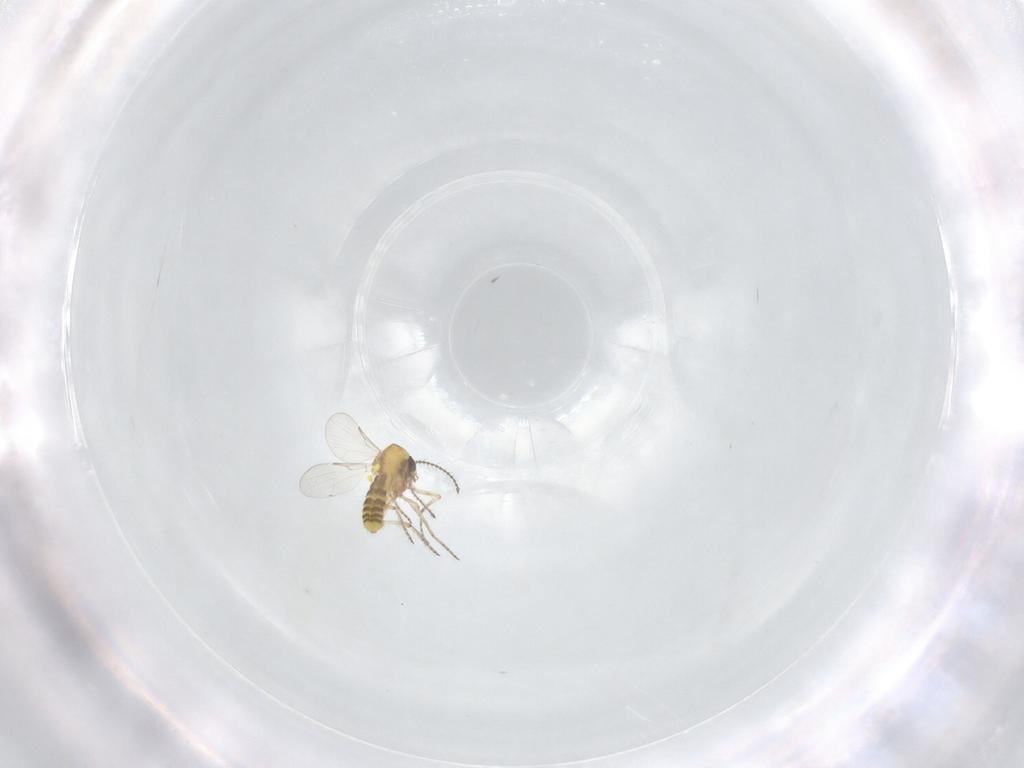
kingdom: Animalia
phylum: Arthropoda
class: Insecta
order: Diptera
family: Ceratopogonidae
